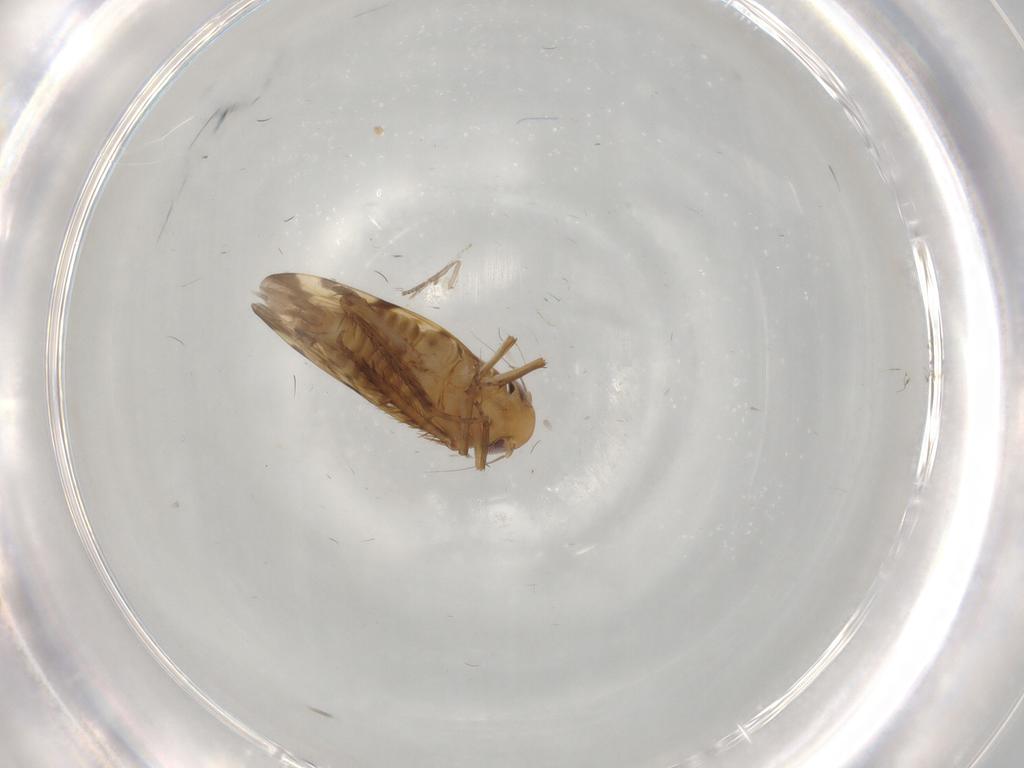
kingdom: Animalia
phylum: Arthropoda
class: Insecta
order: Hemiptera
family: Cicadellidae
